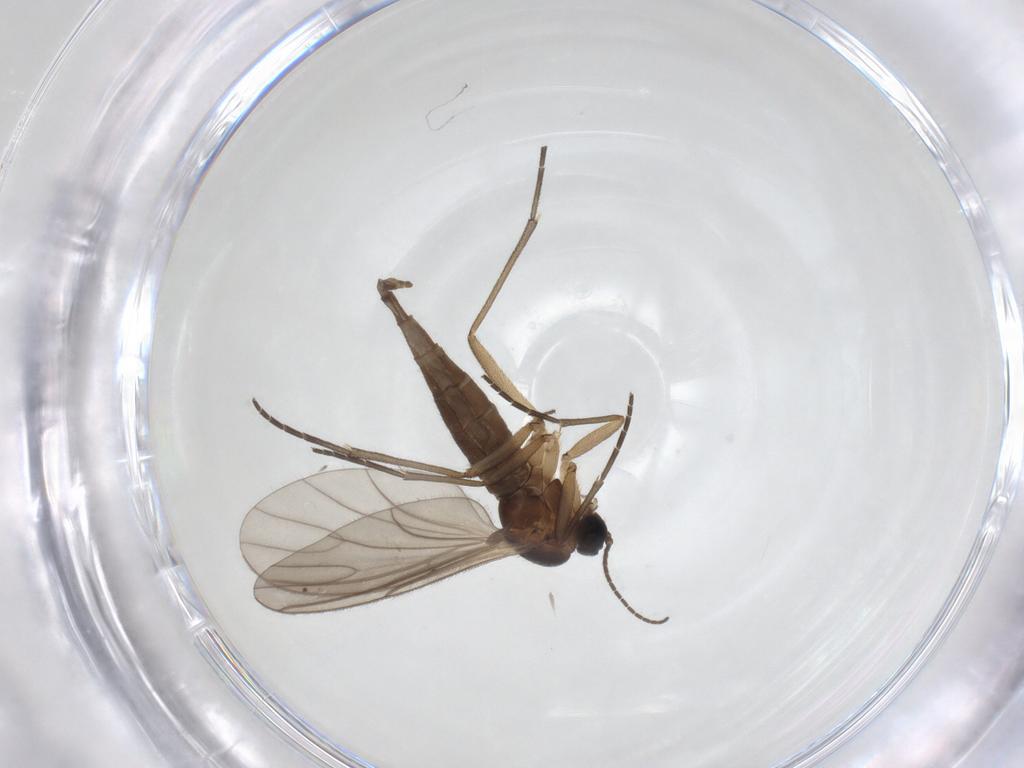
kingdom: Animalia
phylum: Arthropoda
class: Insecta
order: Diptera
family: Sciaridae
